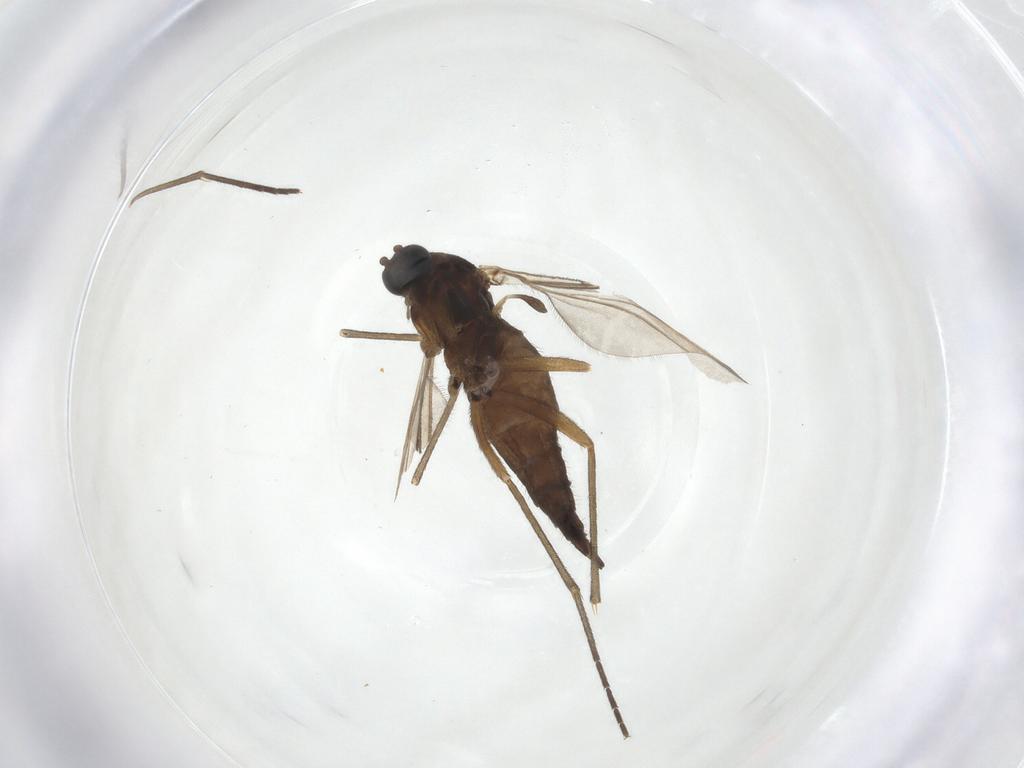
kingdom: Animalia
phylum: Arthropoda
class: Insecta
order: Diptera
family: Sciaridae
